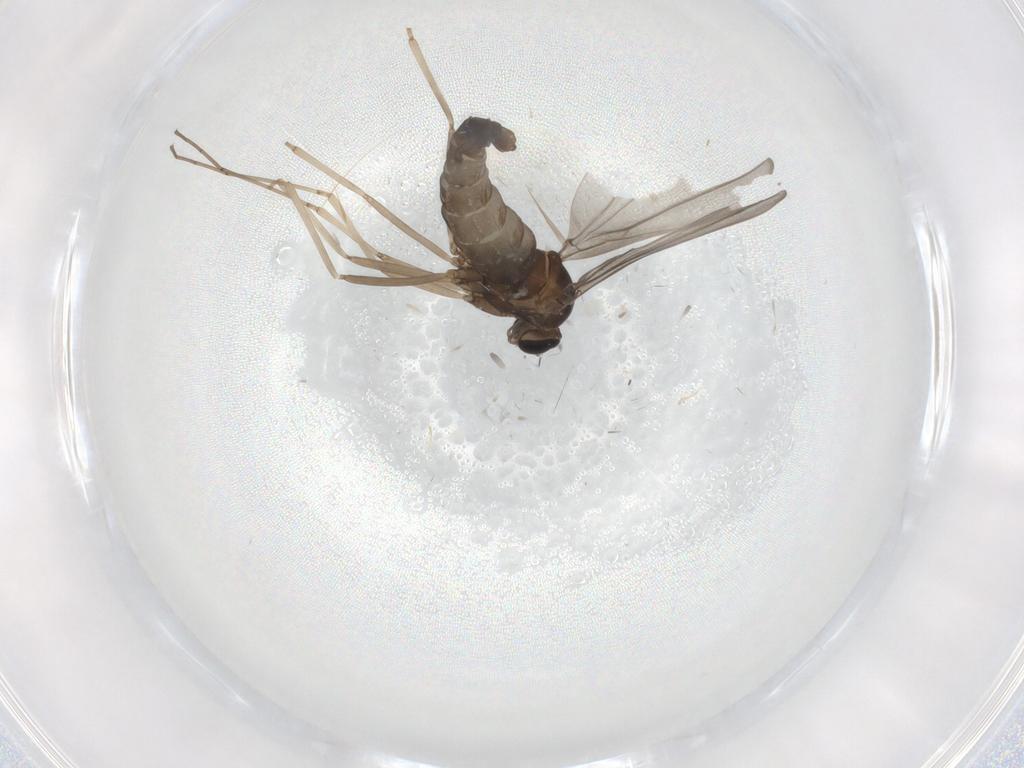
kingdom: Animalia
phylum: Arthropoda
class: Insecta
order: Diptera
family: Cecidomyiidae
